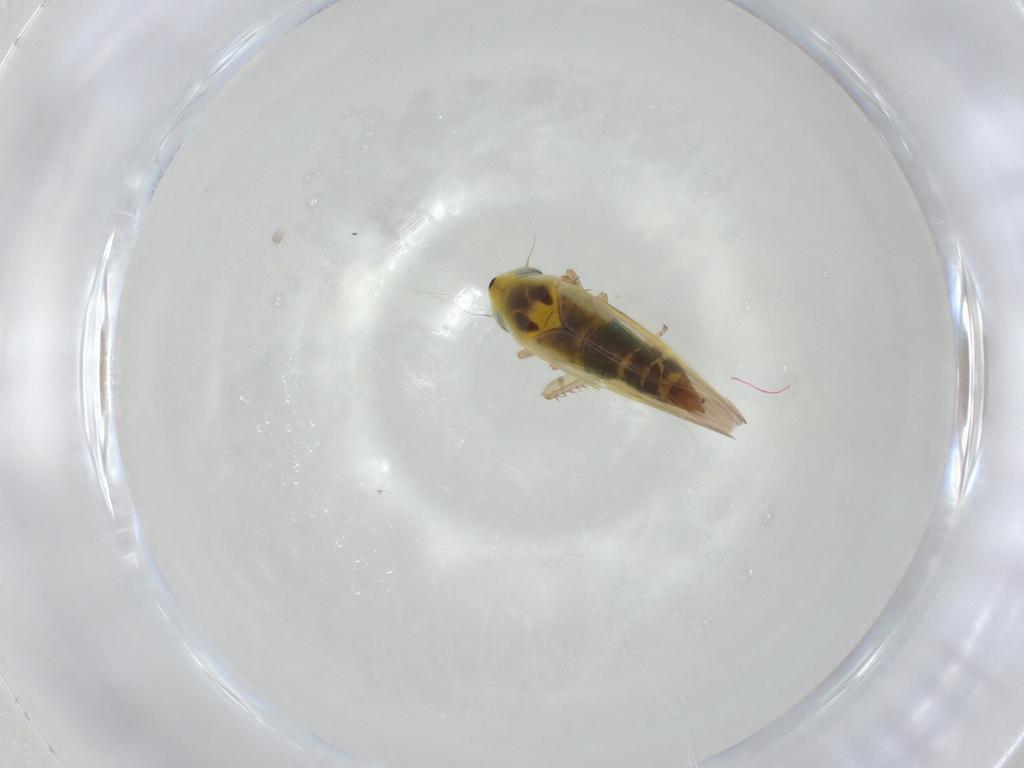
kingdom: Animalia
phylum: Arthropoda
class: Insecta
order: Hemiptera
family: Cicadellidae
